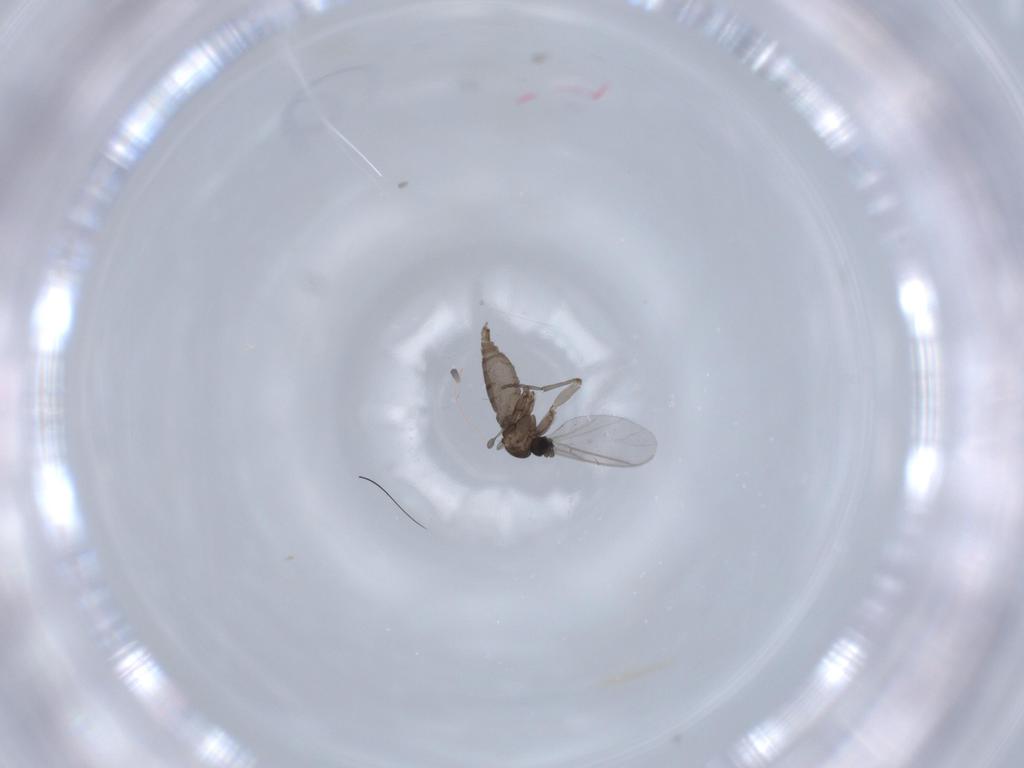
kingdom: Animalia
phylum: Arthropoda
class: Insecta
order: Diptera
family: Sciaridae
